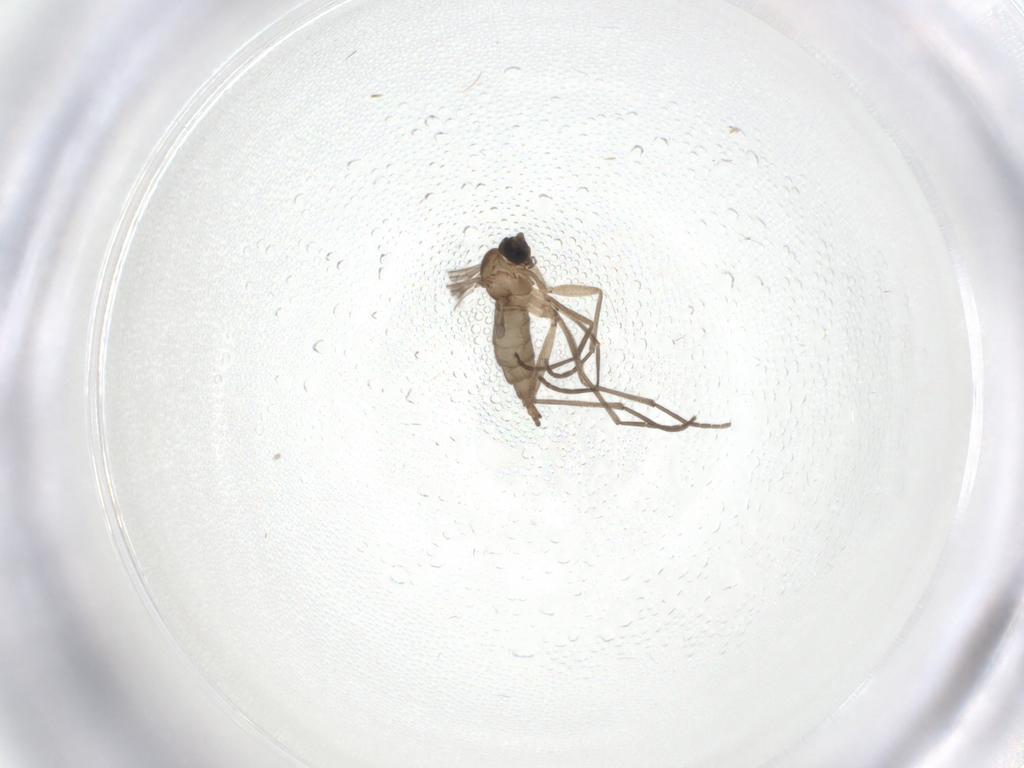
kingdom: Animalia
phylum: Arthropoda
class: Insecta
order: Diptera
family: Sciaridae
